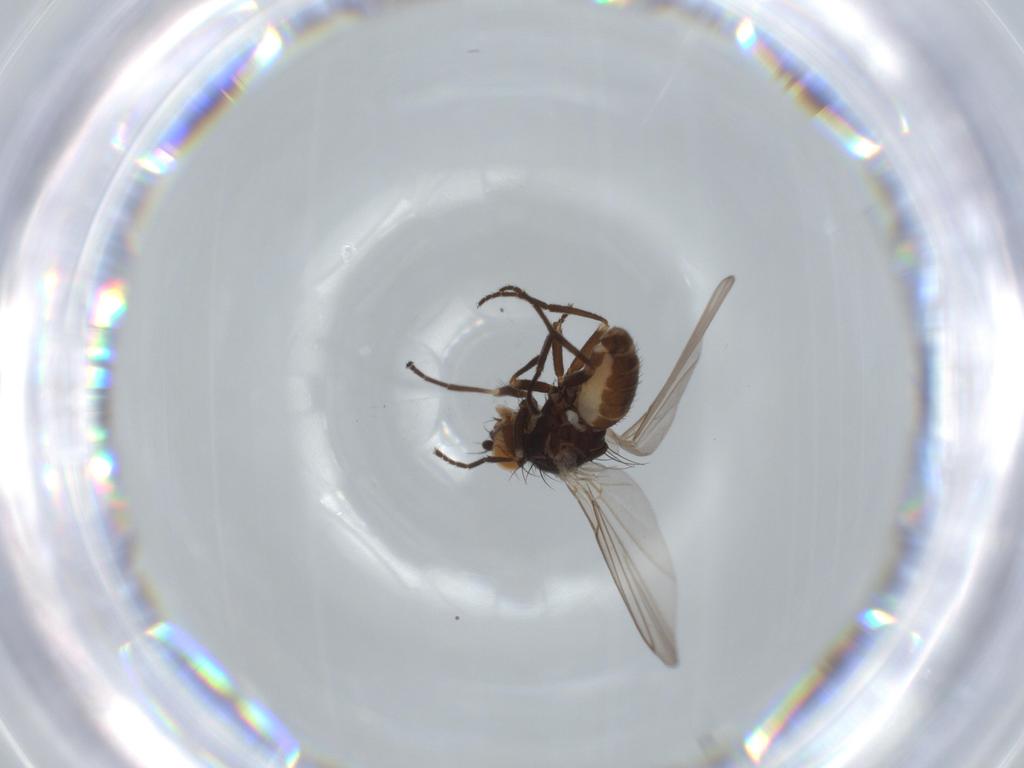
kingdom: Animalia
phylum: Arthropoda
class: Insecta
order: Diptera
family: Agromyzidae
